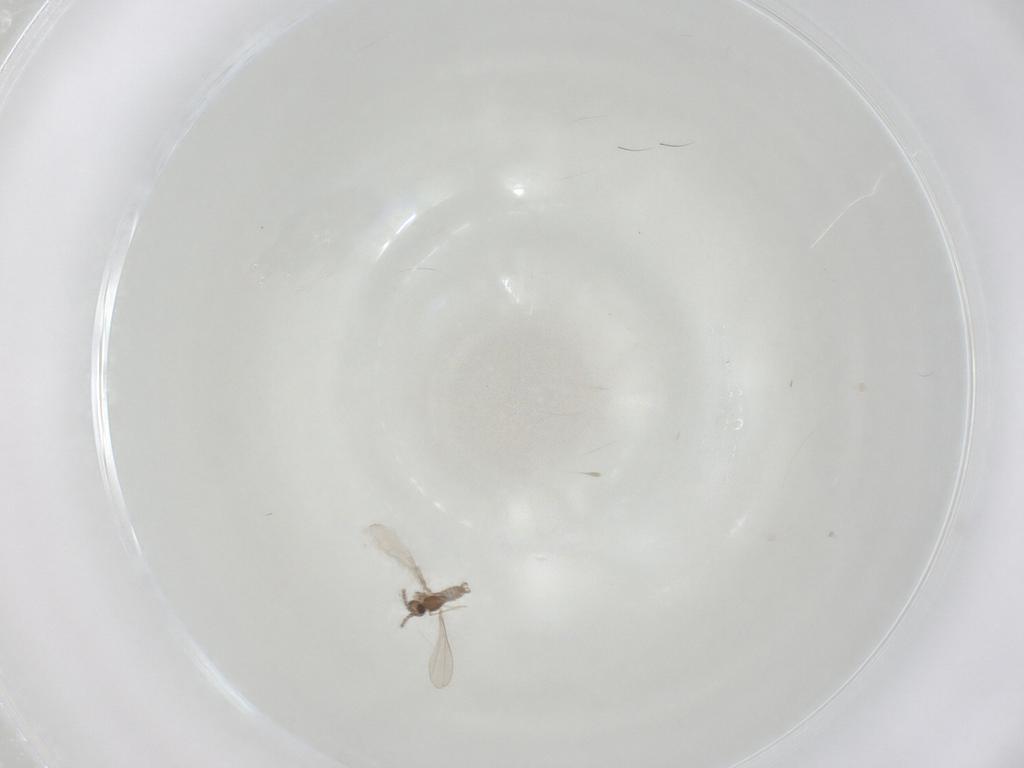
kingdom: Animalia
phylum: Arthropoda
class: Insecta
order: Diptera
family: Cecidomyiidae
